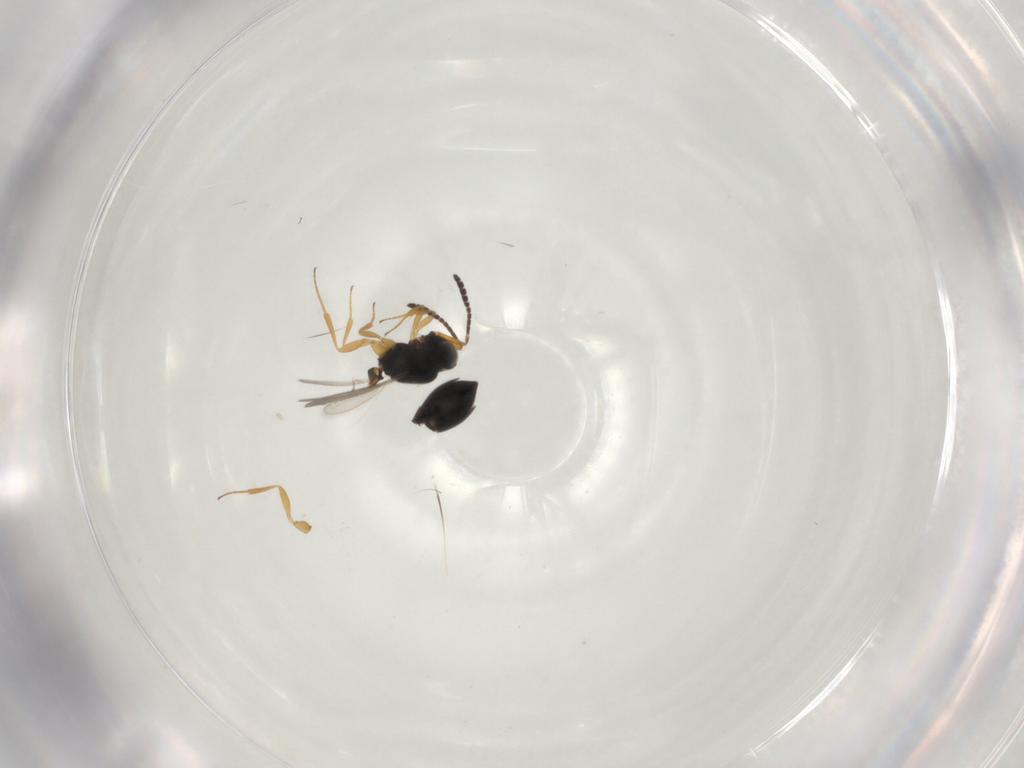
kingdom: Animalia
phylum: Arthropoda
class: Insecta
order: Hymenoptera
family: Scelionidae
